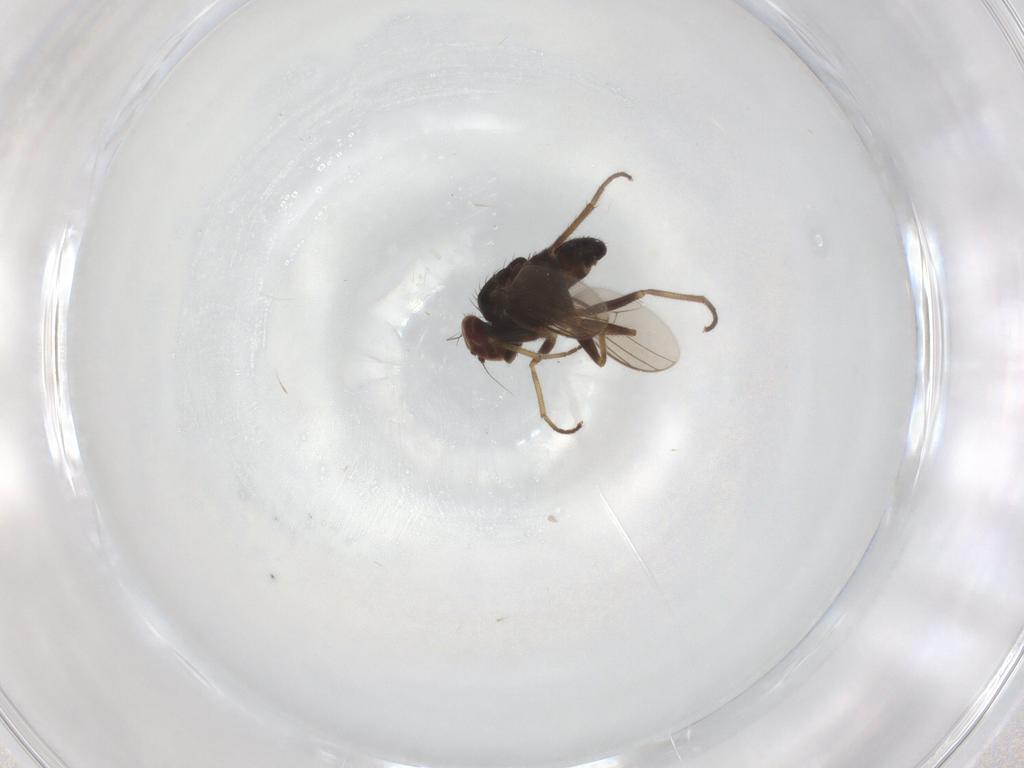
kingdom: Animalia
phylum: Arthropoda
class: Insecta
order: Diptera
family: Dolichopodidae
